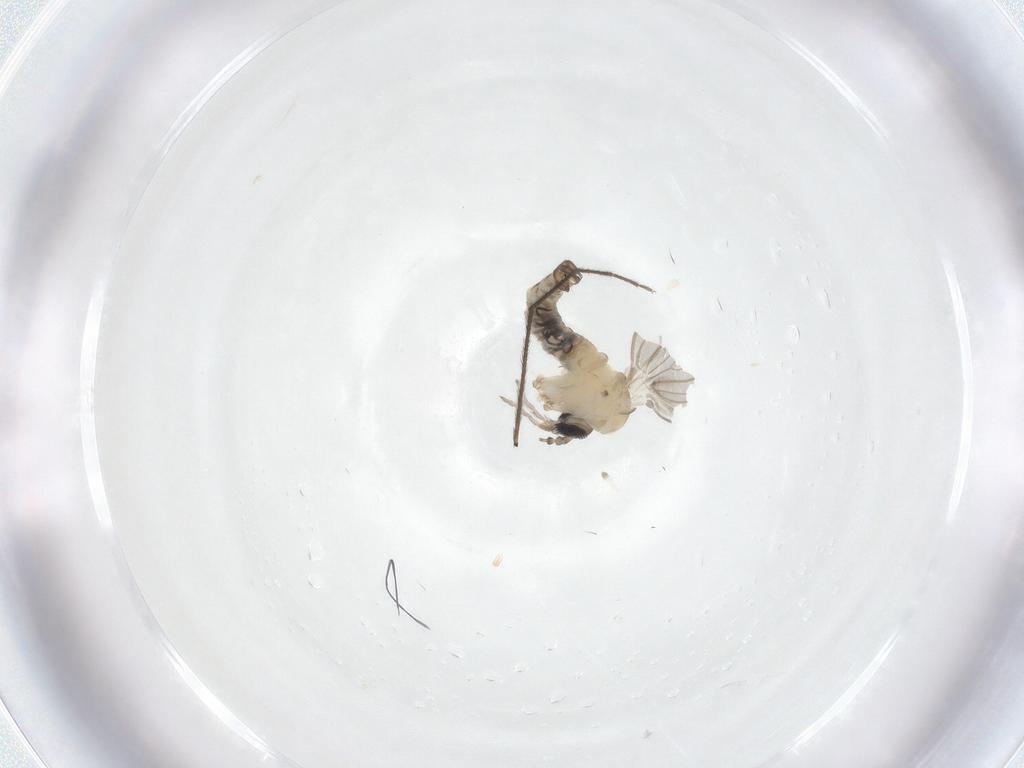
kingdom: Animalia
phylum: Arthropoda
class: Insecta
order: Diptera
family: Psychodidae
